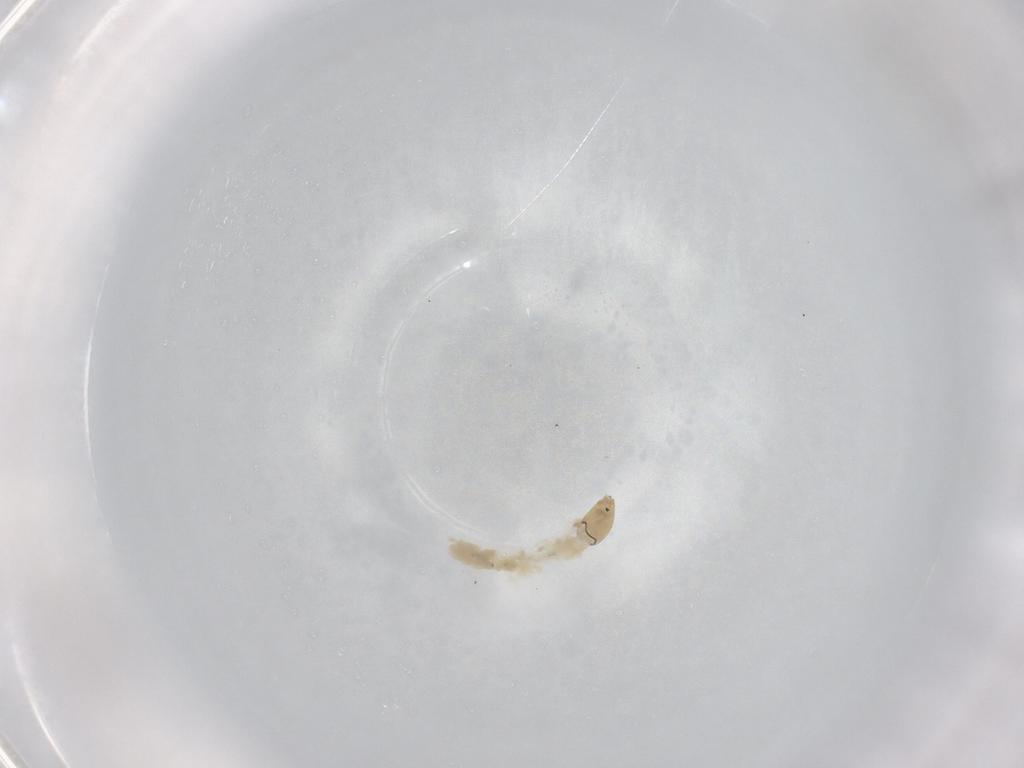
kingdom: Animalia
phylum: Arthropoda
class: Insecta
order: Diptera
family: Chironomidae
